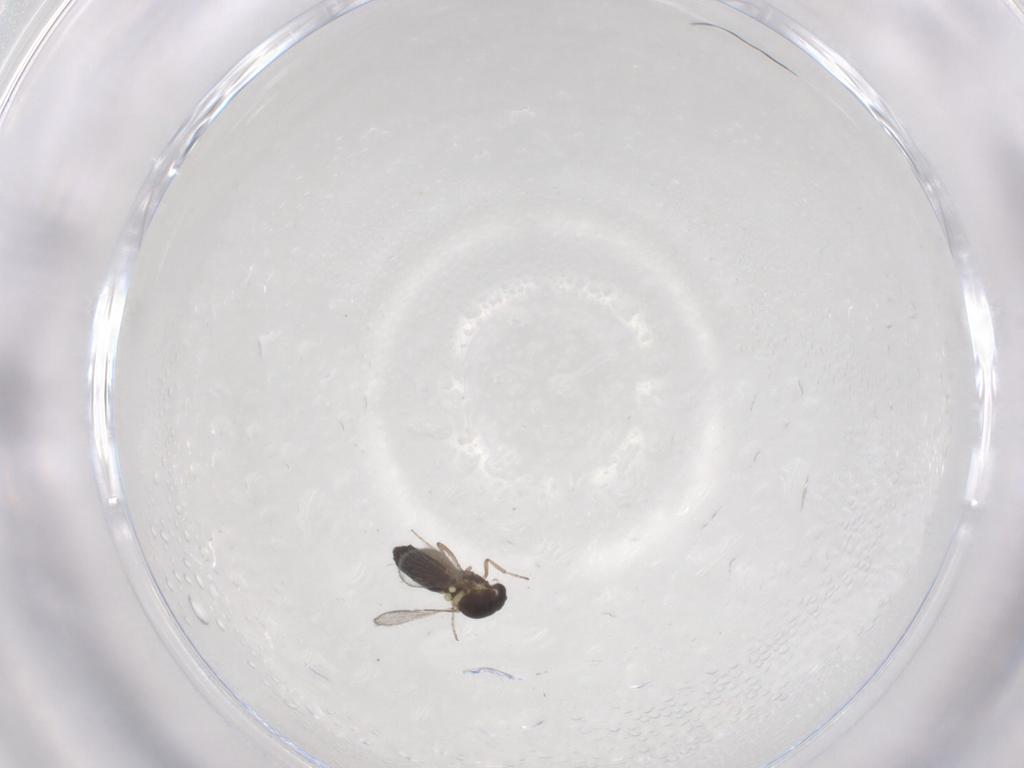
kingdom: Animalia
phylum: Arthropoda
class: Insecta
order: Diptera
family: Ceratopogonidae
